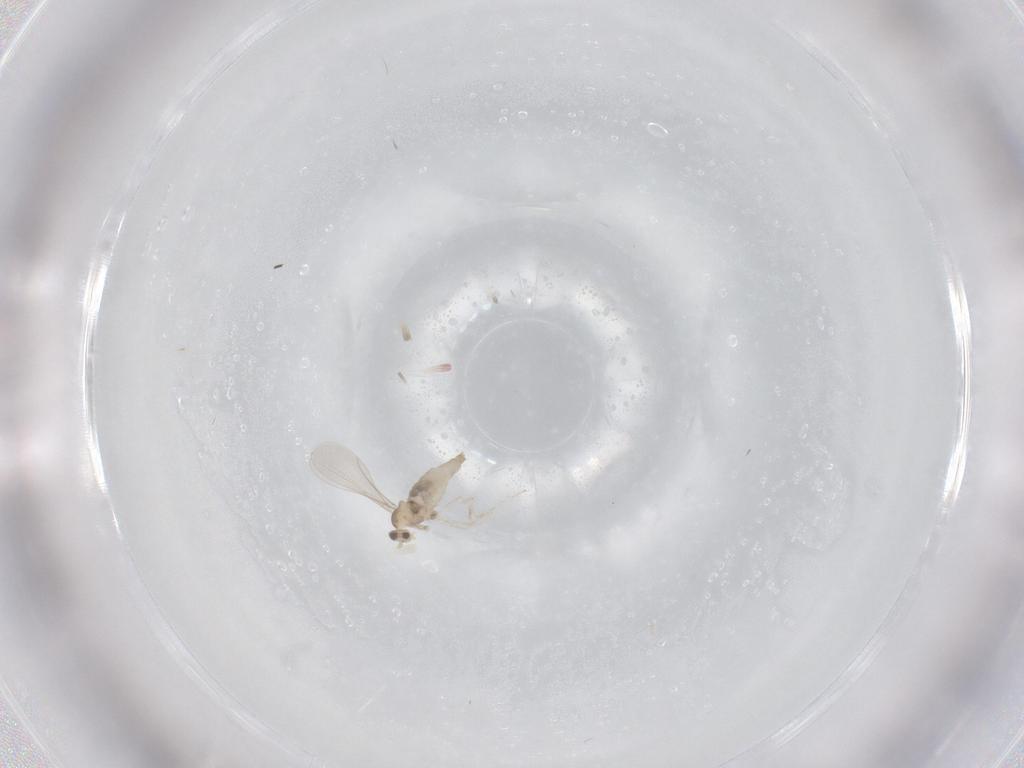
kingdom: Animalia
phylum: Arthropoda
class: Insecta
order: Diptera
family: Cecidomyiidae
